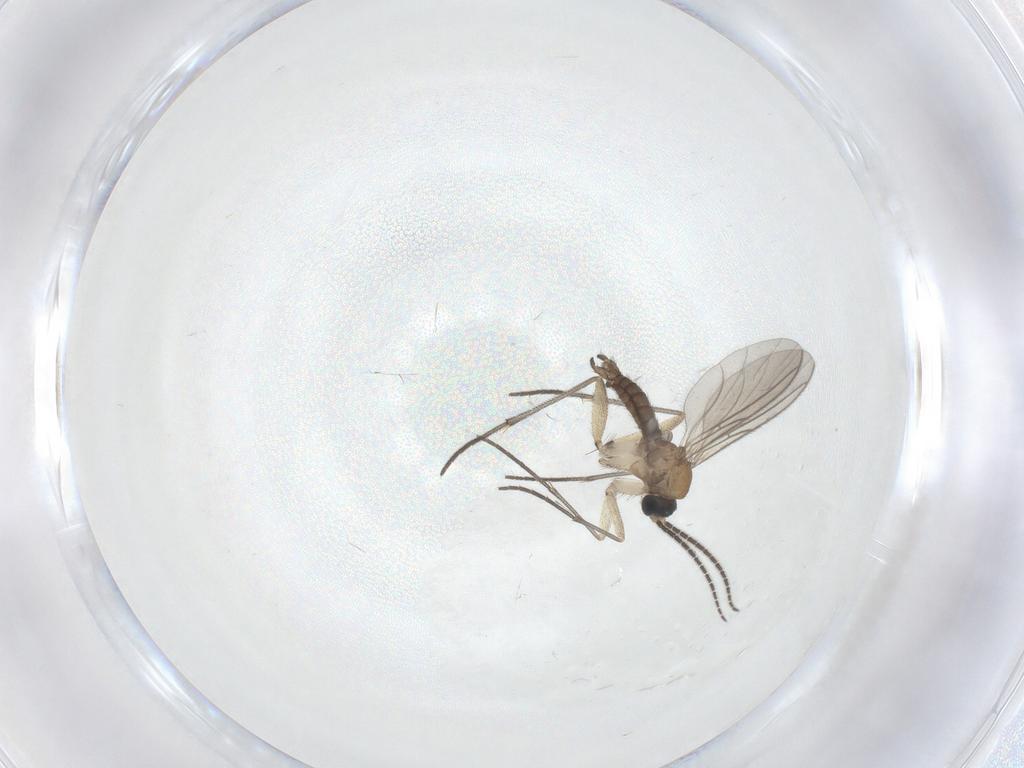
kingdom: Animalia
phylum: Arthropoda
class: Insecta
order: Diptera
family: Sciaridae
